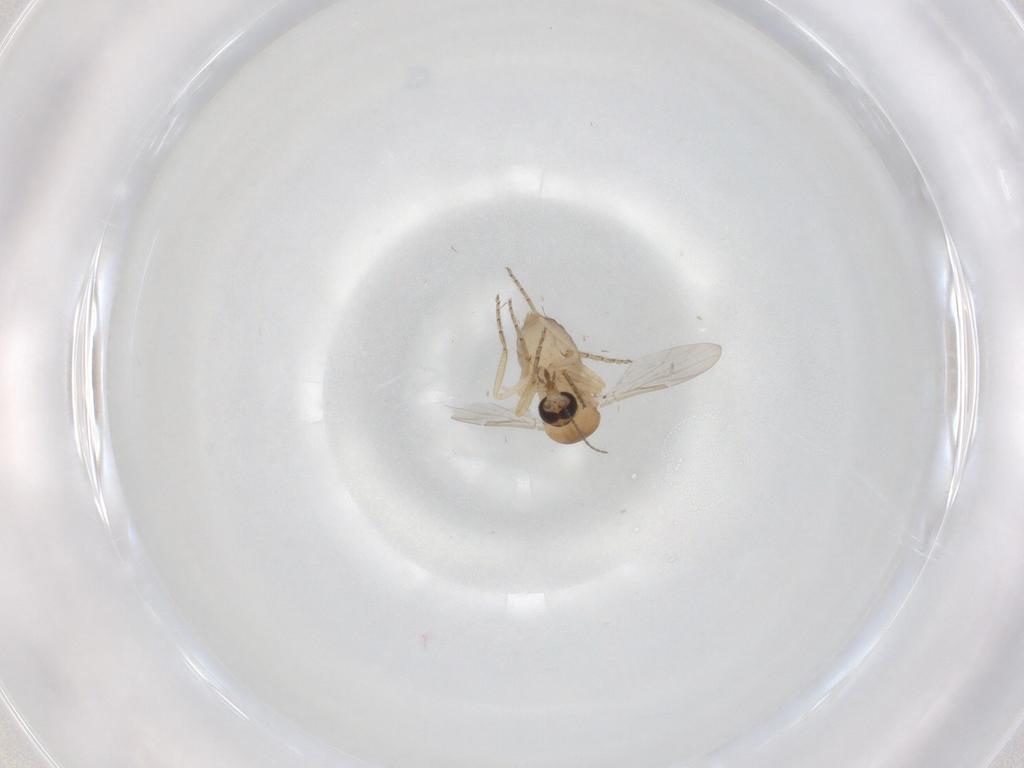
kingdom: Animalia
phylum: Arthropoda
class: Insecta
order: Diptera
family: Ceratopogonidae
